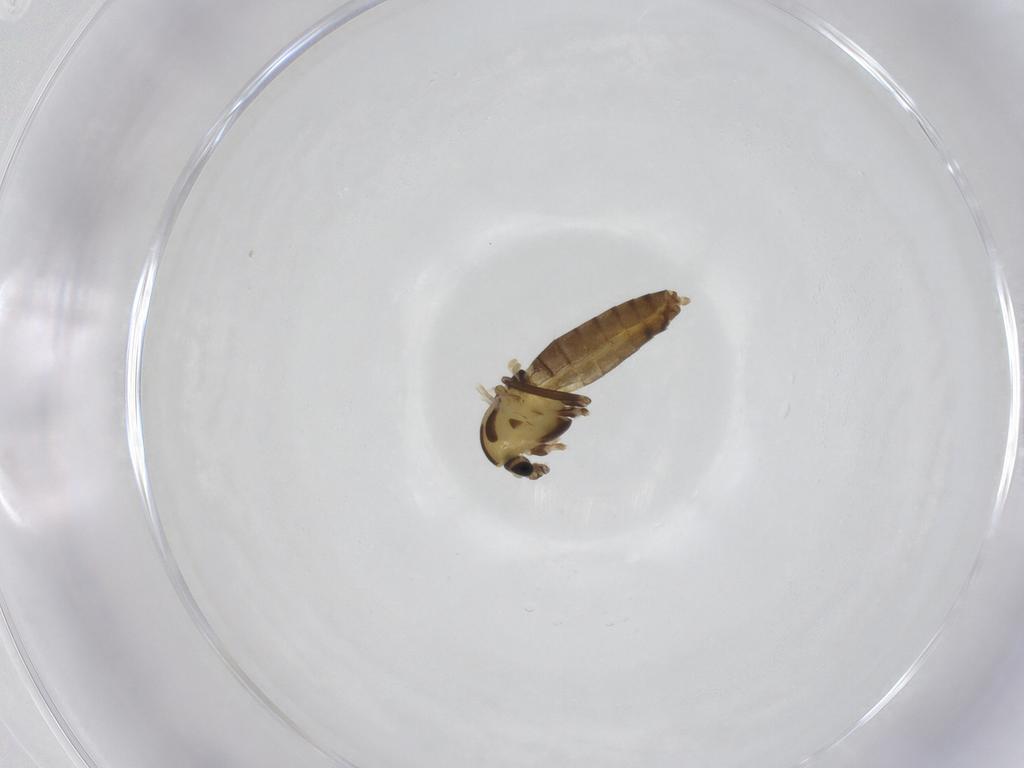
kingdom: Animalia
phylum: Arthropoda
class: Insecta
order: Diptera
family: Chironomidae
